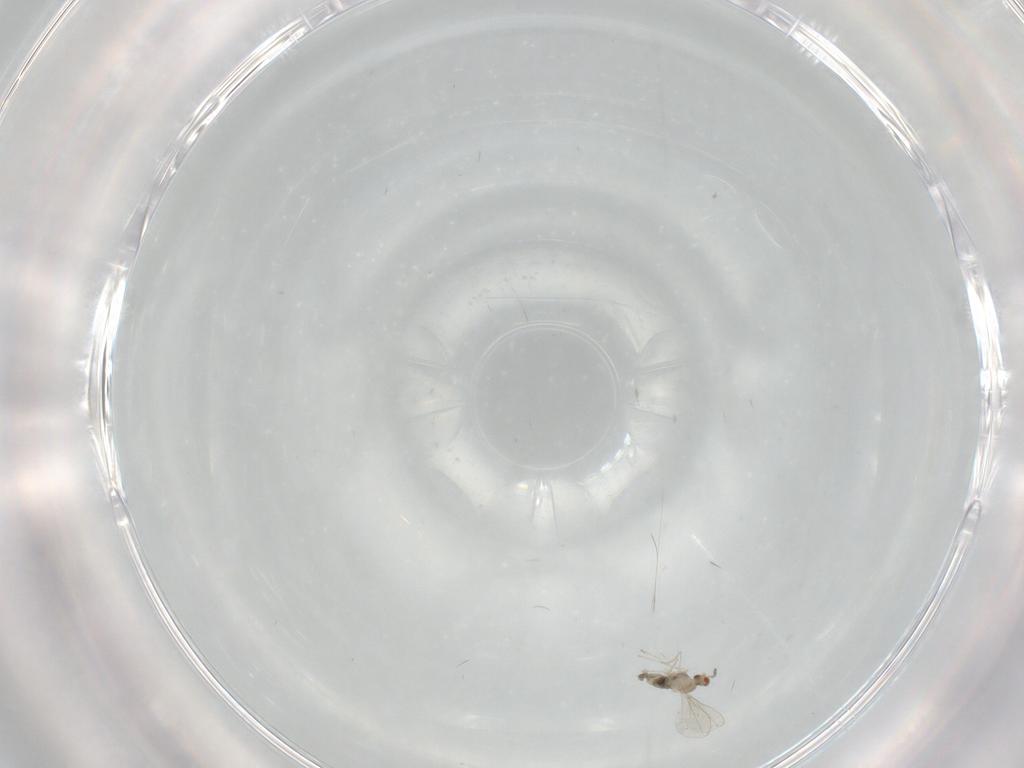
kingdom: Animalia
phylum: Arthropoda
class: Insecta
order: Diptera
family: Cecidomyiidae
